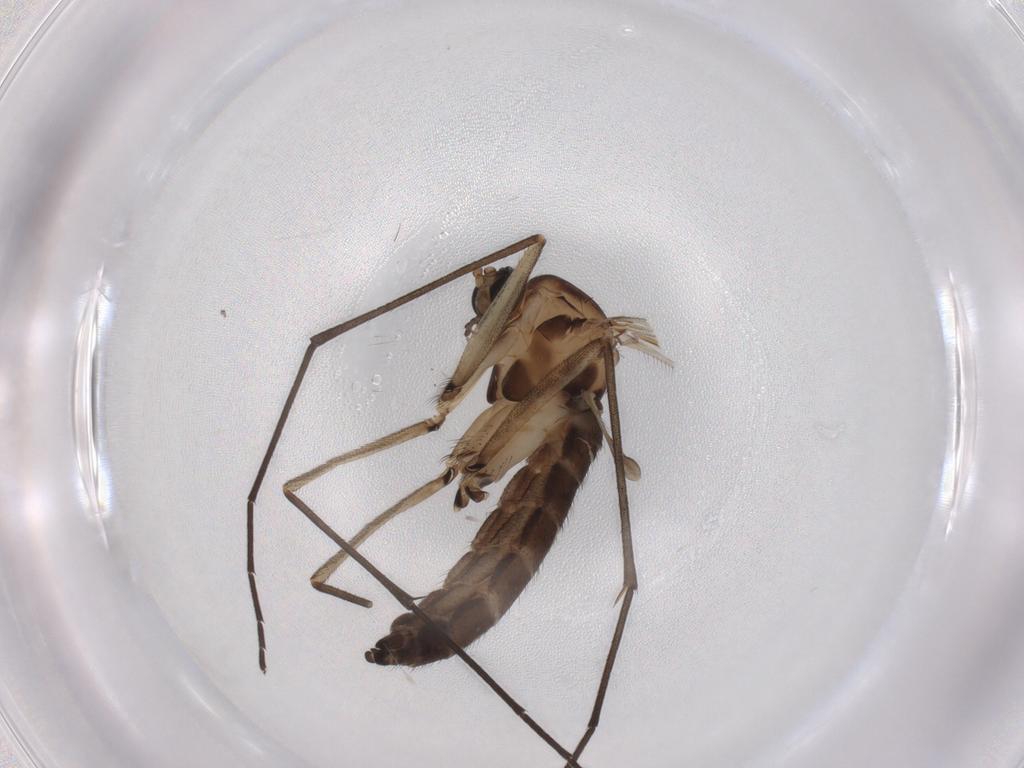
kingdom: Animalia
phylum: Arthropoda
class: Insecta
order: Diptera
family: Sciaridae
